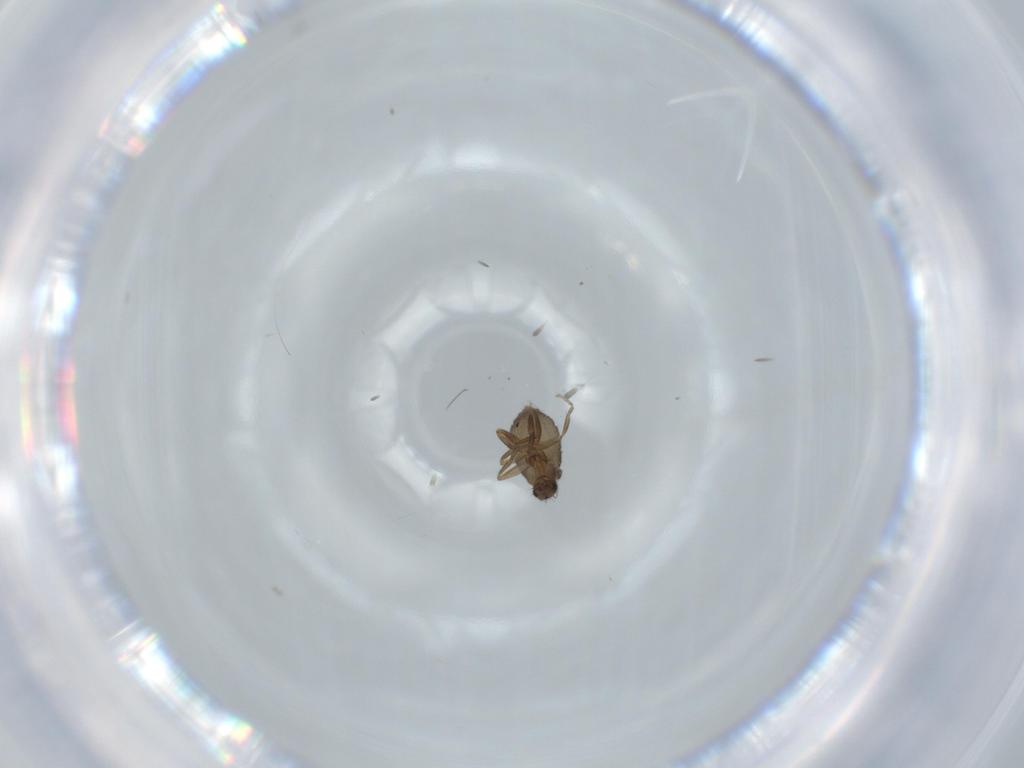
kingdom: Animalia
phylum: Arthropoda
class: Insecta
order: Diptera
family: Phoridae
